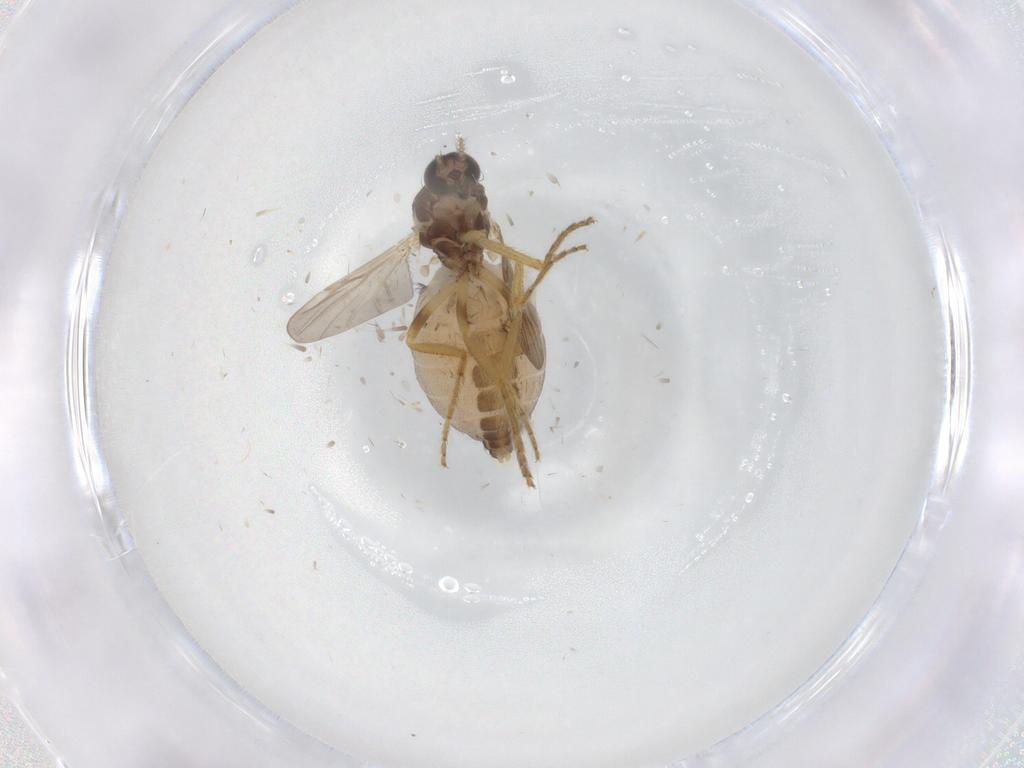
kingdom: Animalia
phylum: Arthropoda
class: Insecta
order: Diptera
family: Ceratopogonidae
